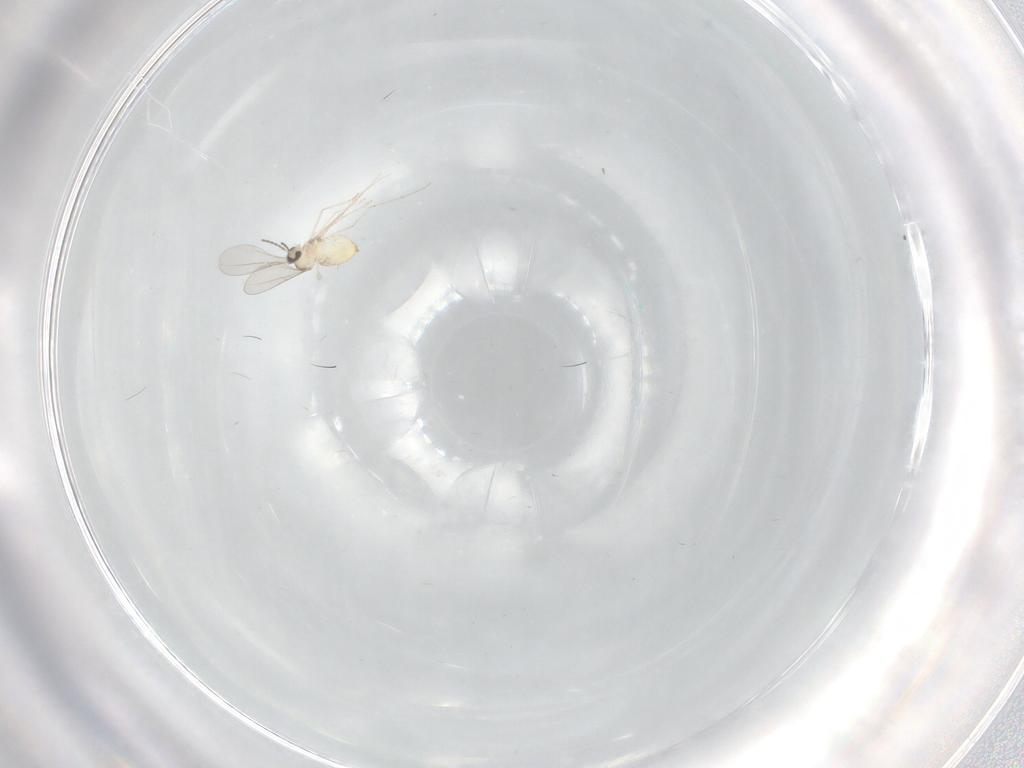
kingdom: Animalia
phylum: Arthropoda
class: Insecta
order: Diptera
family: Cecidomyiidae
